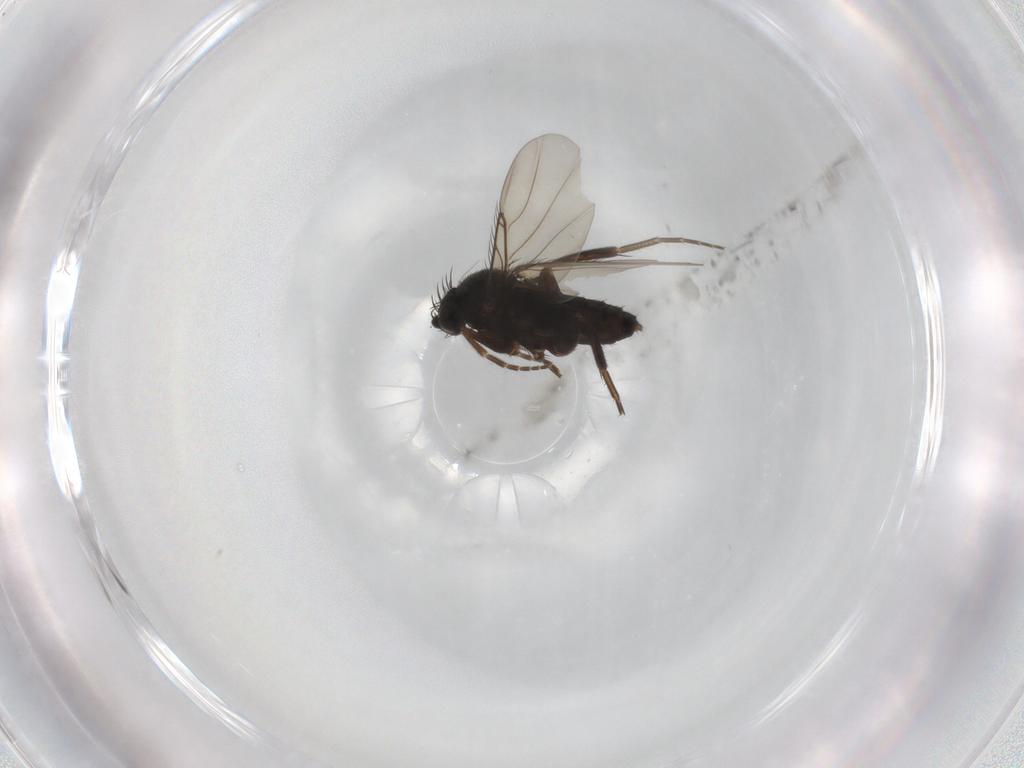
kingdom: Animalia
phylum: Arthropoda
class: Insecta
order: Diptera
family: Phoridae
